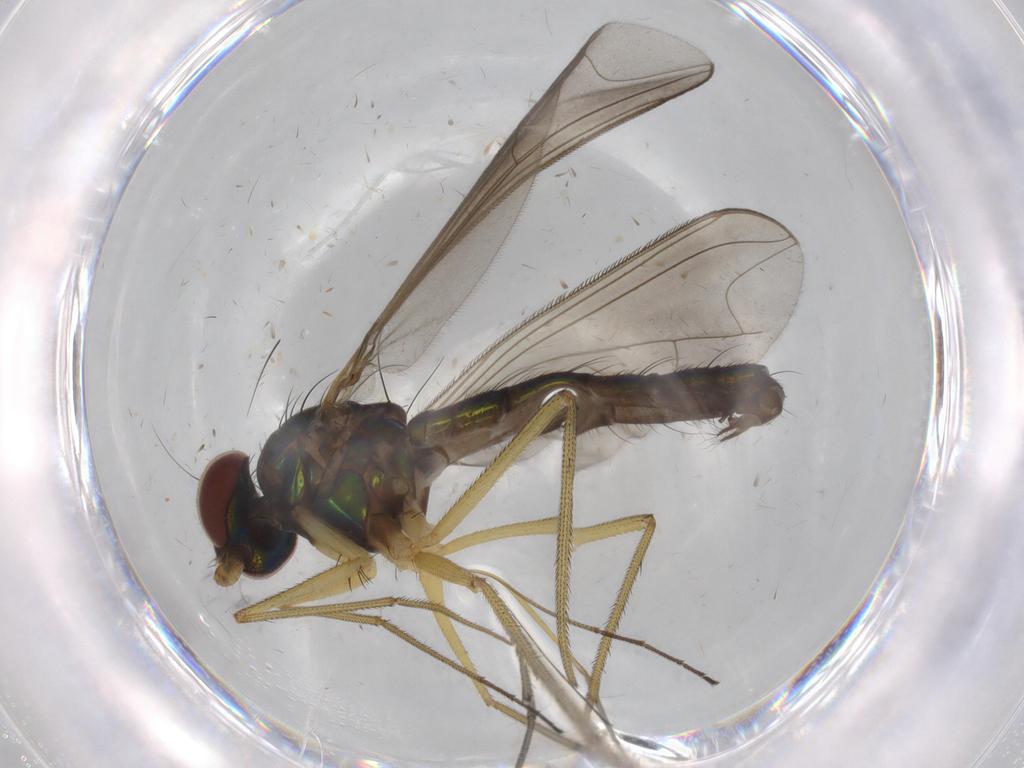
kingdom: Animalia
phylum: Arthropoda
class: Insecta
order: Diptera
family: Dolichopodidae
